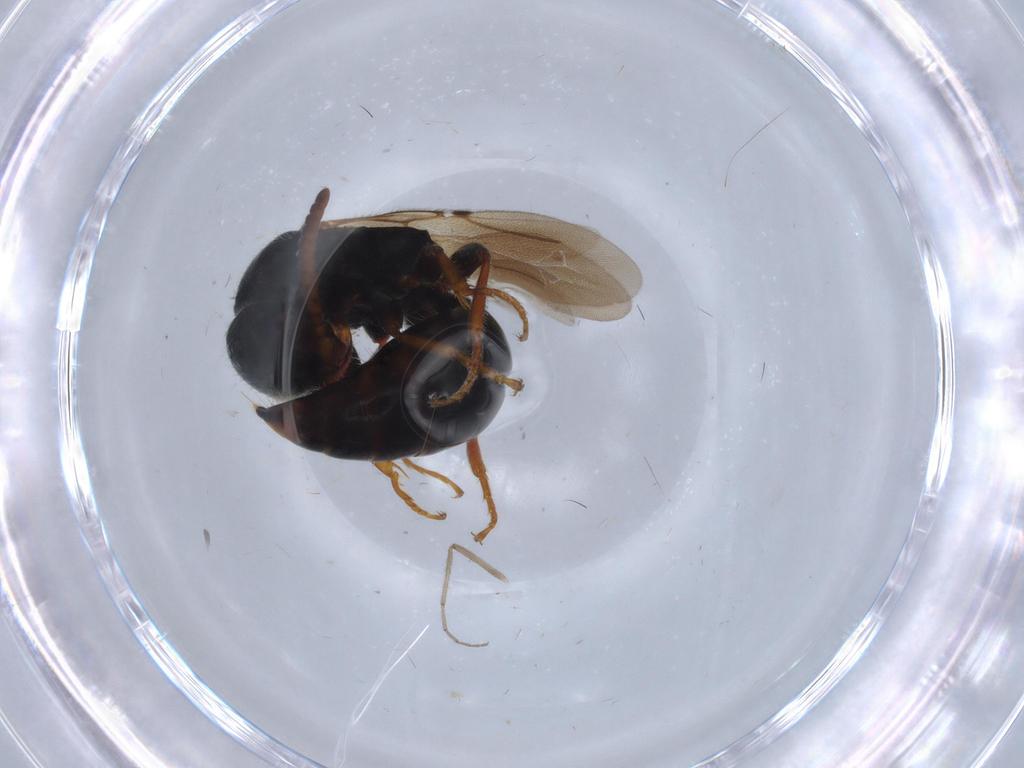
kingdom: Animalia
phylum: Arthropoda
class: Insecta
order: Hymenoptera
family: Bethylidae
